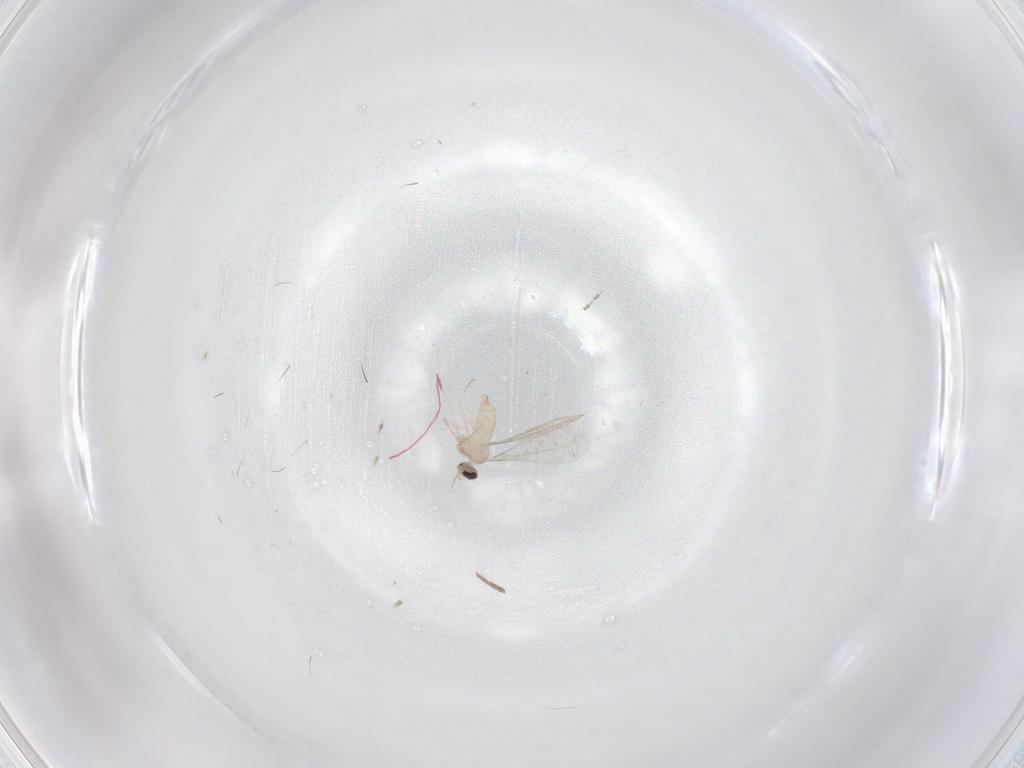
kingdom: Animalia
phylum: Arthropoda
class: Insecta
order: Diptera
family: Cecidomyiidae
